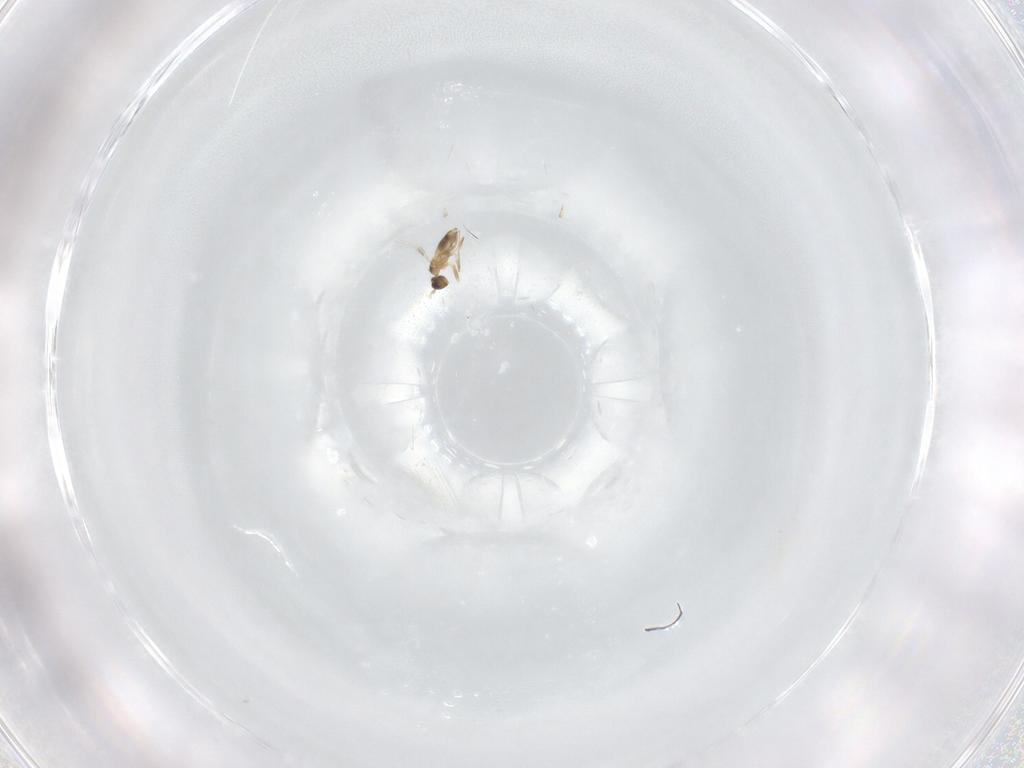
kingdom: Animalia
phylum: Arthropoda
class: Insecta
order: Hymenoptera
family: Mymaridae
